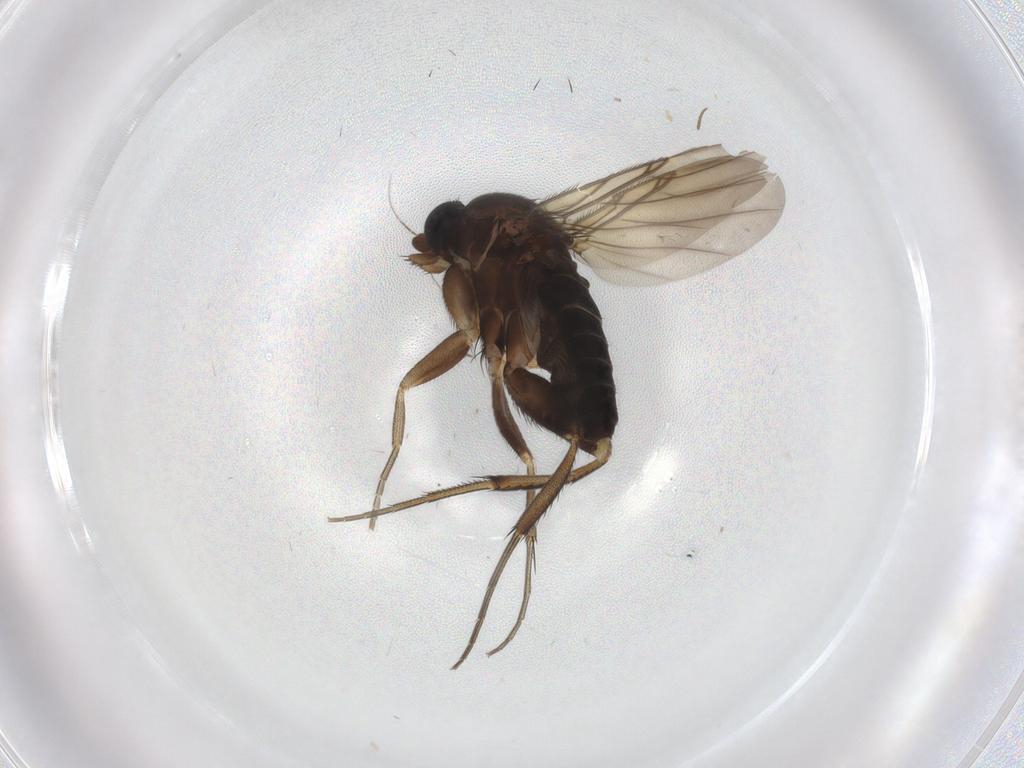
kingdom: Animalia
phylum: Arthropoda
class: Insecta
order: Diptera
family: Phoridae
